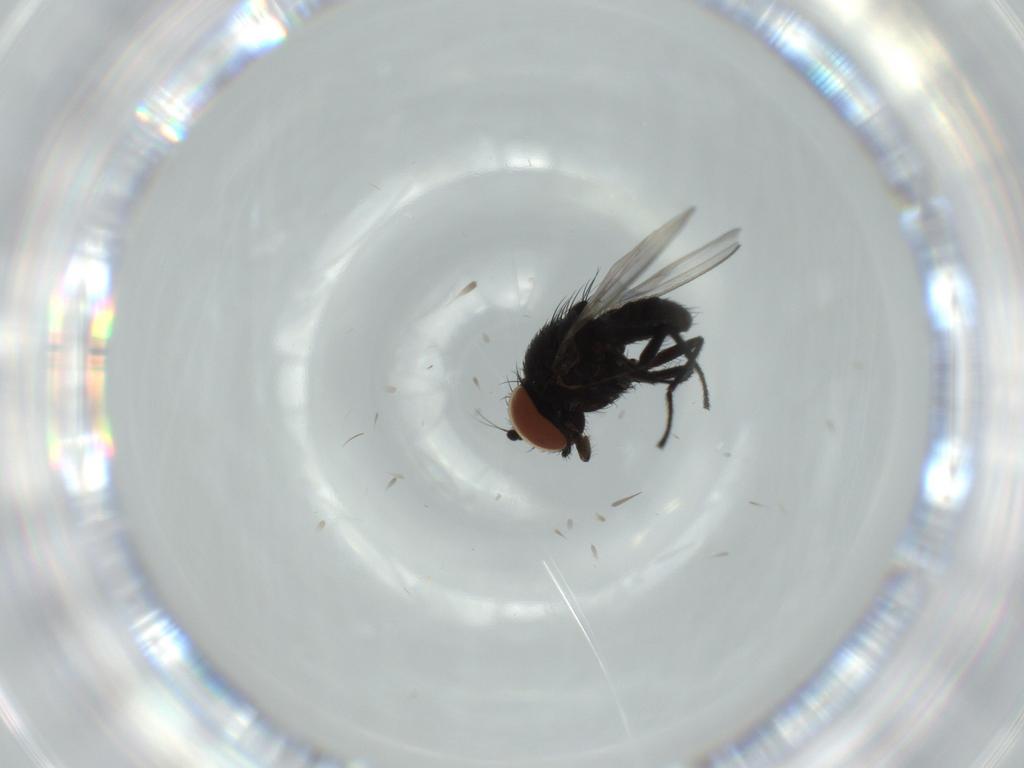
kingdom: Animalia
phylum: Arthropoda
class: Insecta
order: Diptera
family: Milichiidae
